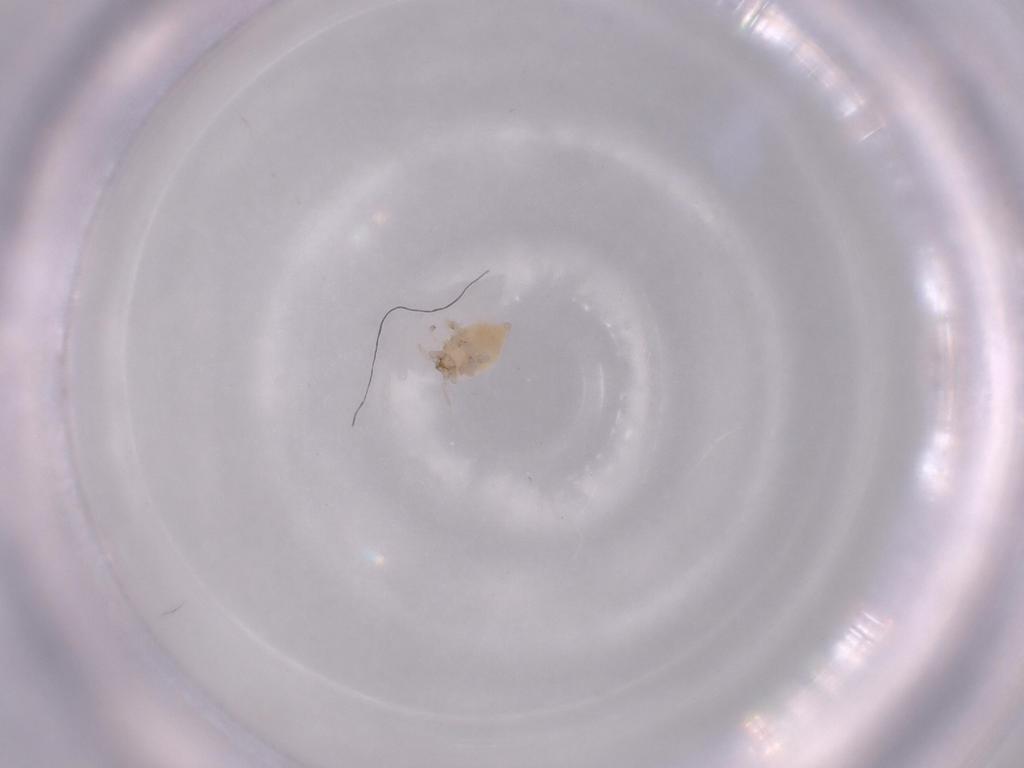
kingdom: Animalia
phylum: Arthropoda
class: Insecta
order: Neuroptera
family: Coniopterygidae
